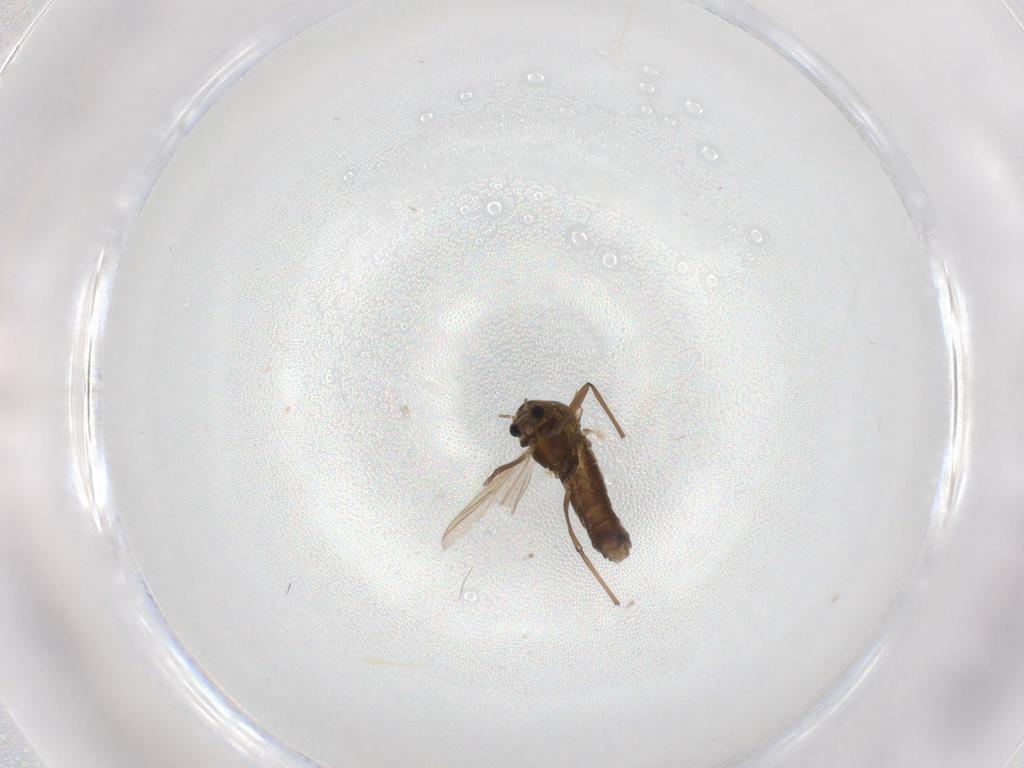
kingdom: Animalia
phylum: Arthropoda
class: Insecta
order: Diptera
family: Chironomidae
